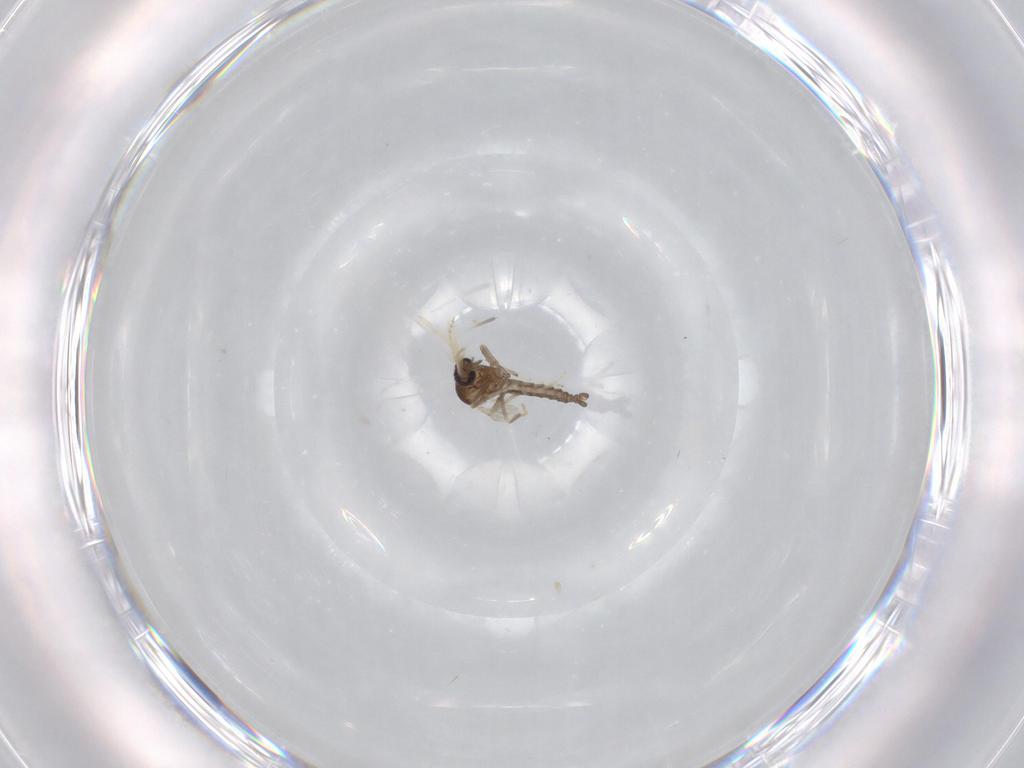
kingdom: Animalia
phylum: Arthropoda
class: Insecta
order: Diptera
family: Ceratopogonidae
